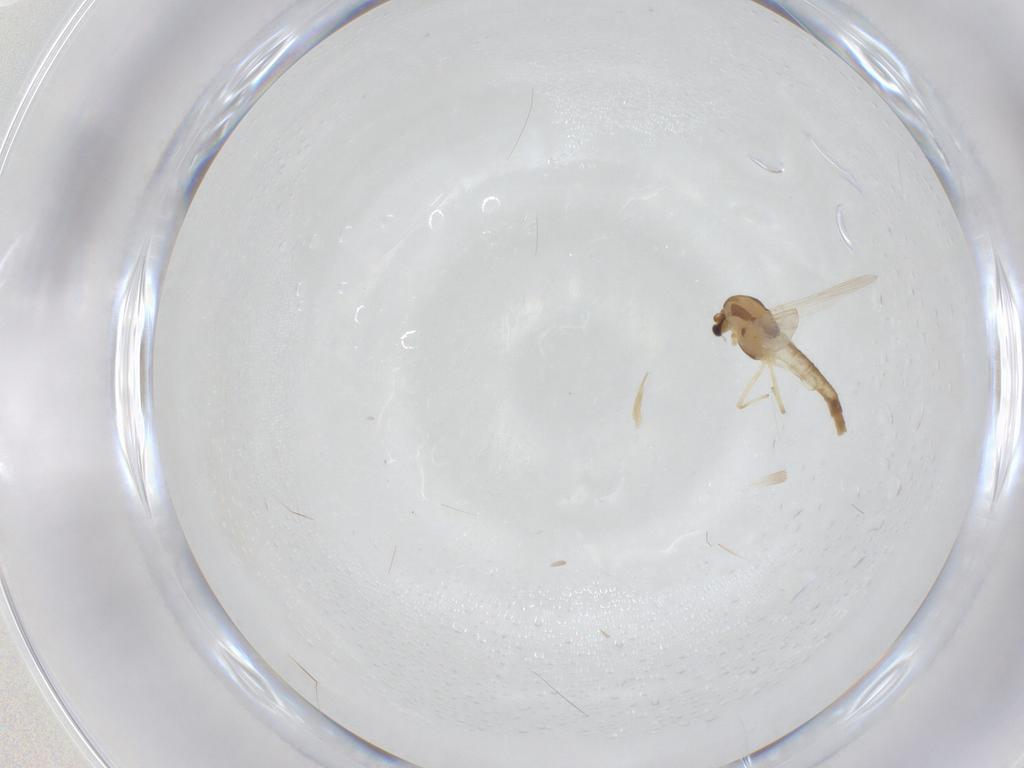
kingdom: Animalia
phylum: Arthropoda
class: Insecta
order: Diptera
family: Chironomidae
